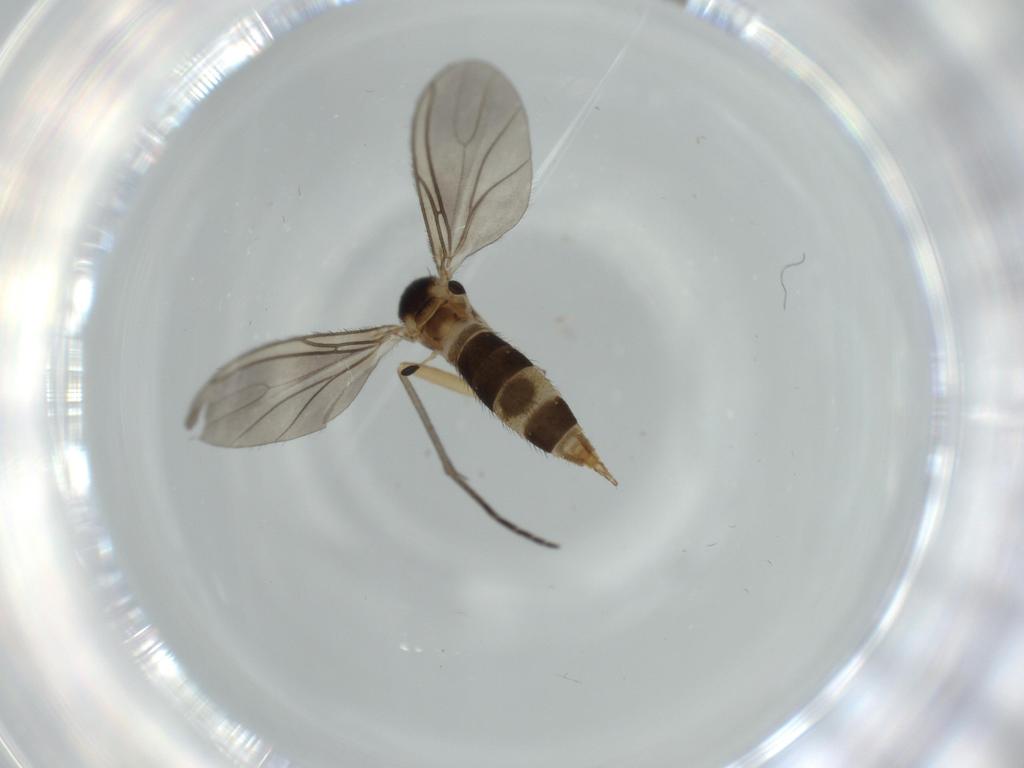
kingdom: Animalia
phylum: Arthropoda
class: Insecta
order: Diptera
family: Sciaridae
